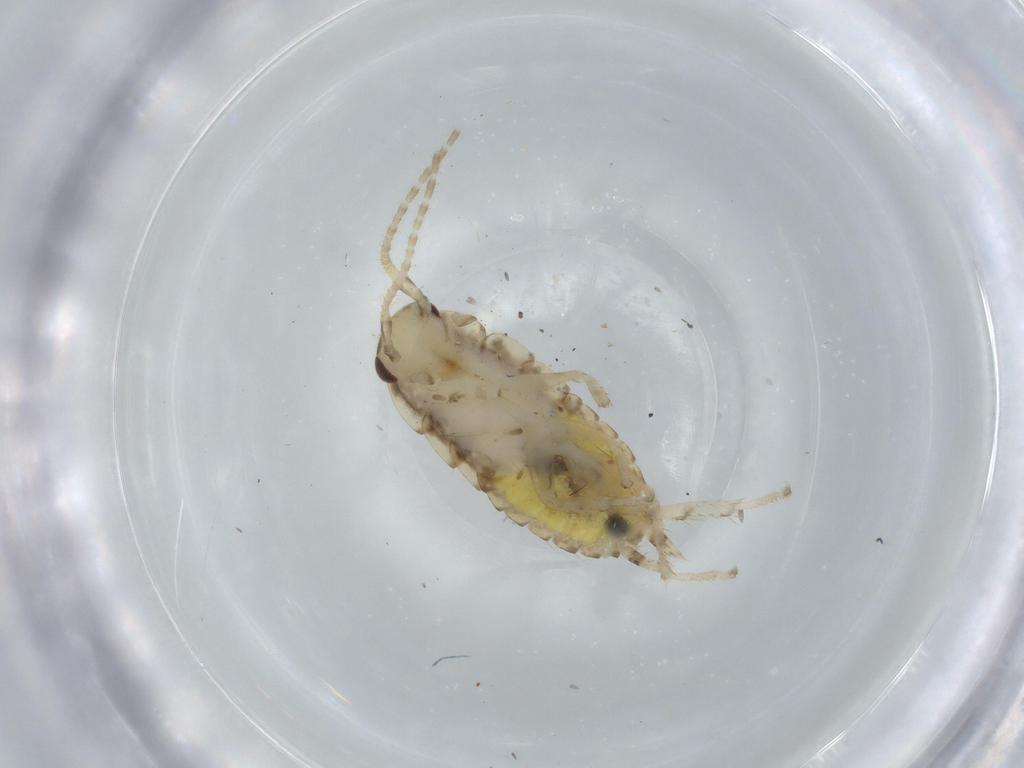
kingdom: Animalia
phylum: Arthropoda
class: Insecta
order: Blattodea
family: Ectobiidae
